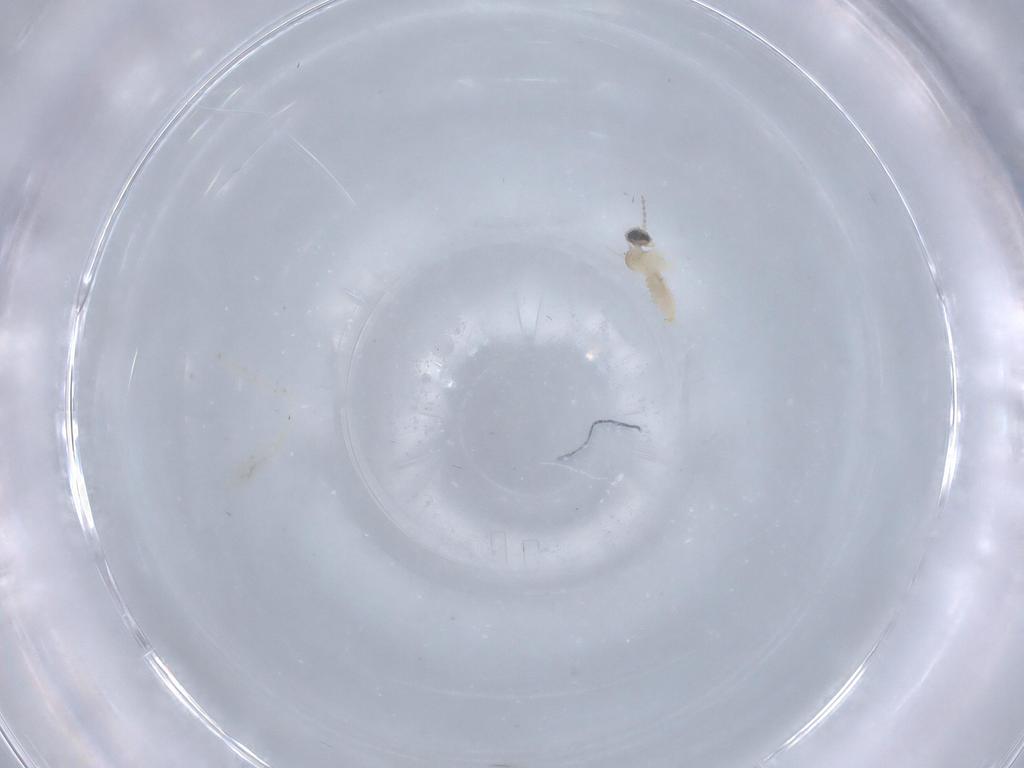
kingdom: Animalia
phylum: Arthropoda
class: Insecta
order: Diptera
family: Cecidomyiidae
